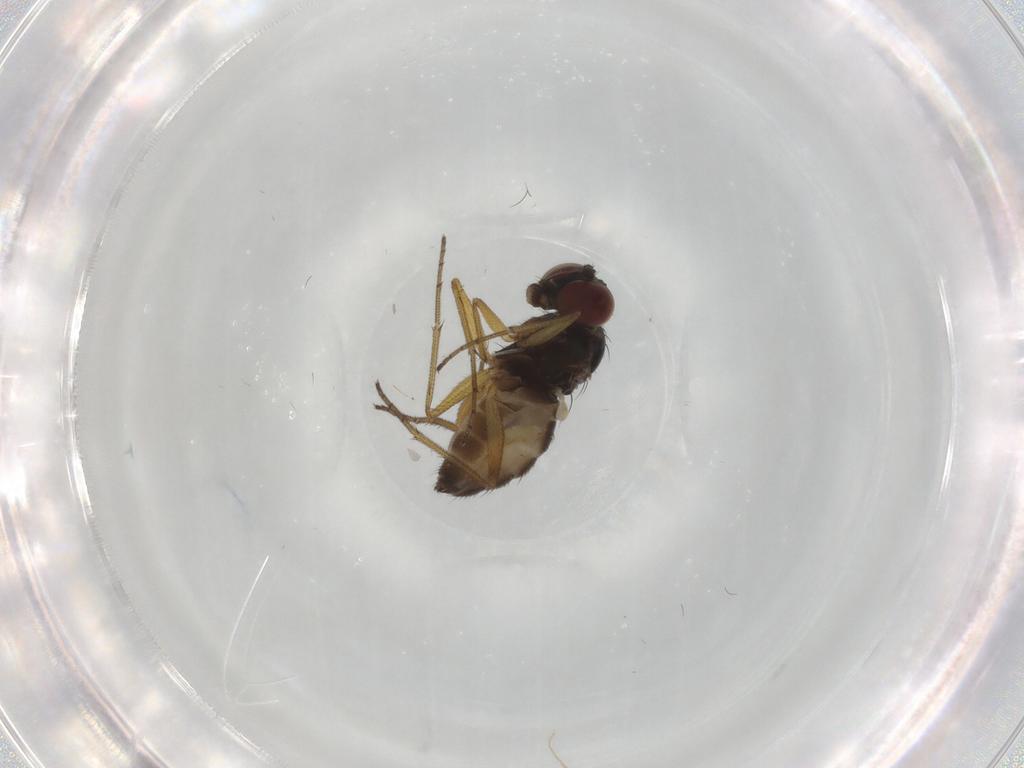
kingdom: Animalia
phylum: Arthropoda
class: Insecta
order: Diptera
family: Dolichopodidae
